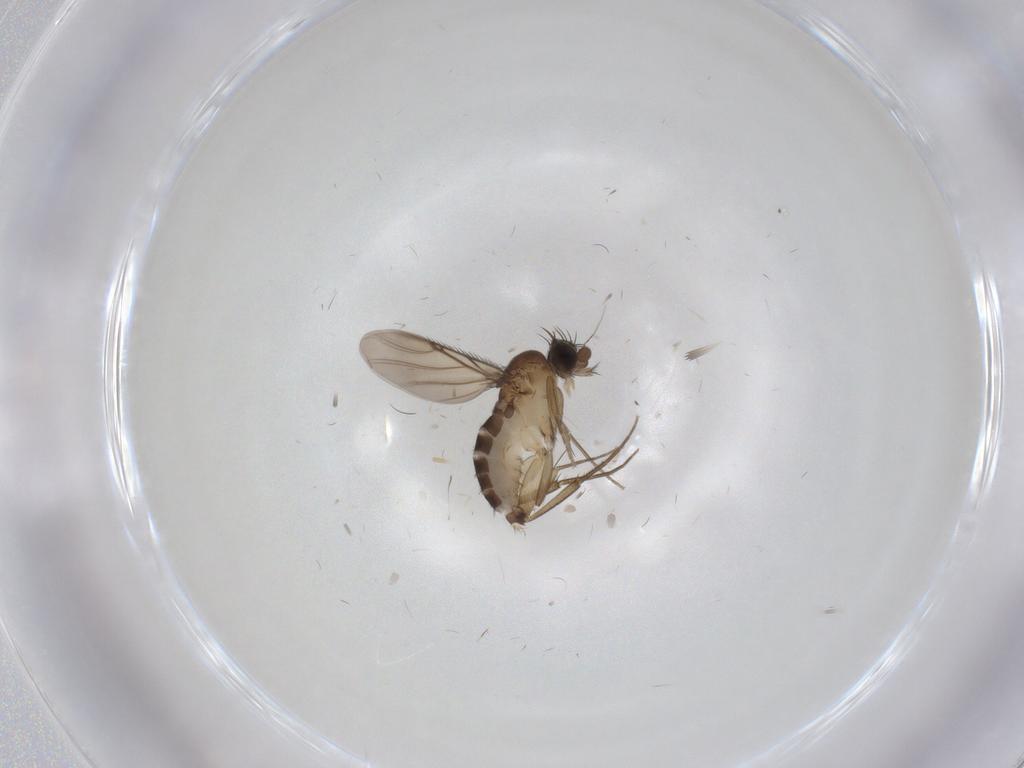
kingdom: Animalia
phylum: Arthropoda
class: Insecta
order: Diptera
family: Phoridae
